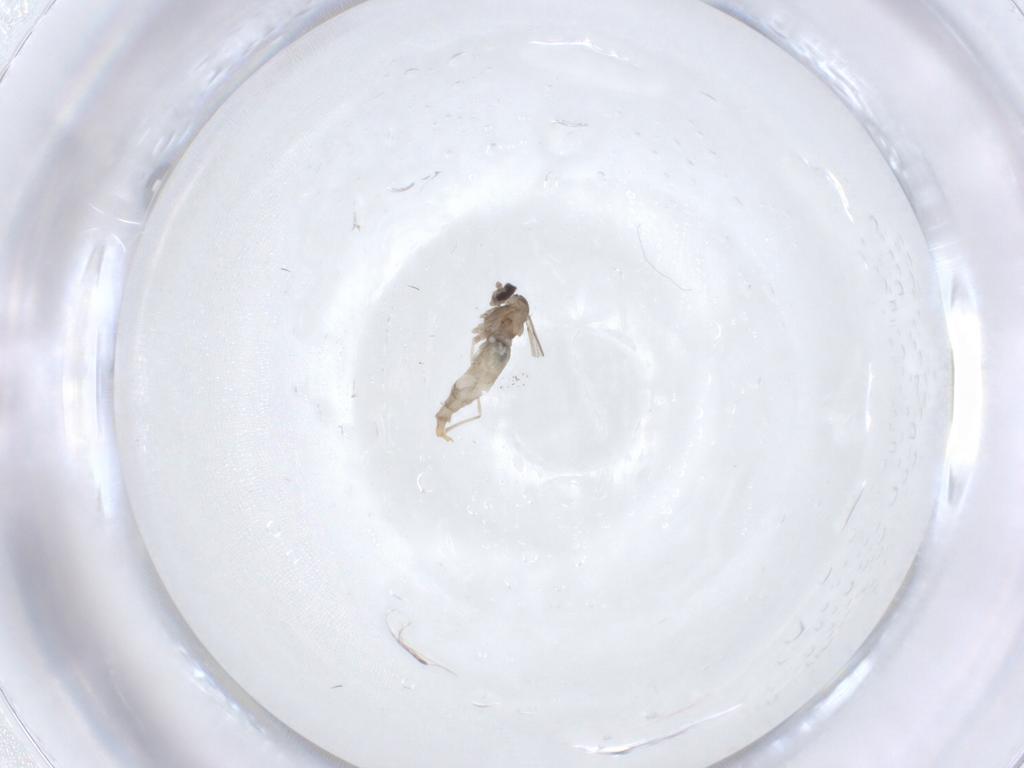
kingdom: Animalia
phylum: Arthropoda
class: Insecta
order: Diptera
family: Cecidomyiidae
